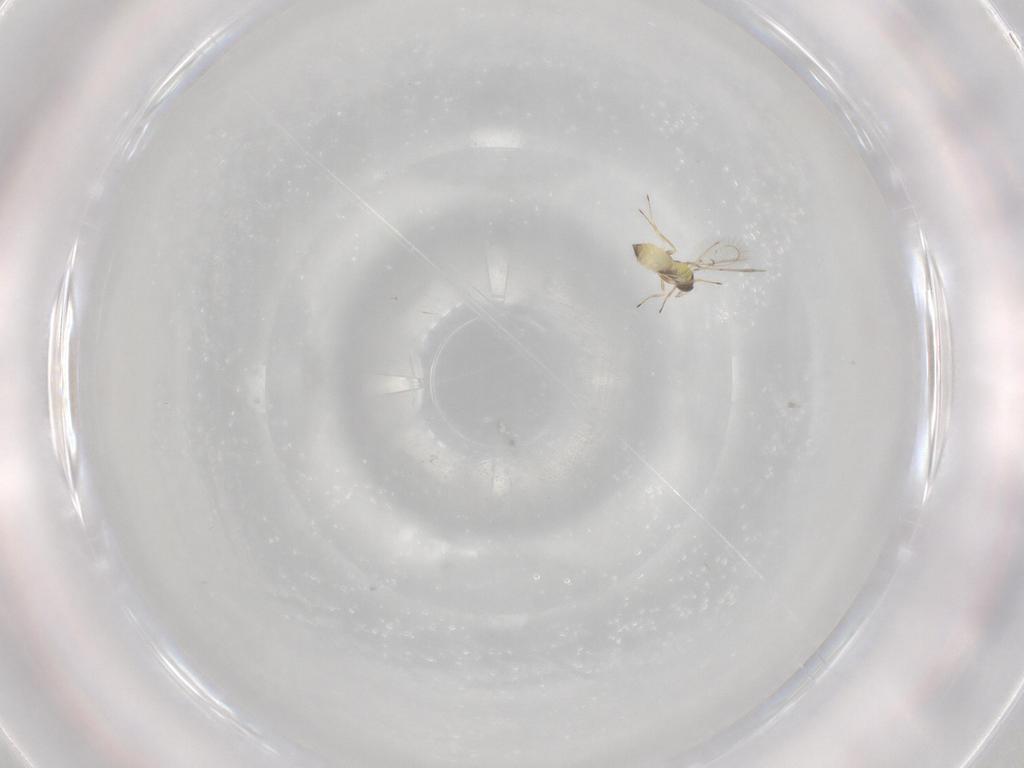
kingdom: Animalia
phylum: Arthropoda
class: Insecta
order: Hymenoptera
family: Trichogrammatidae
